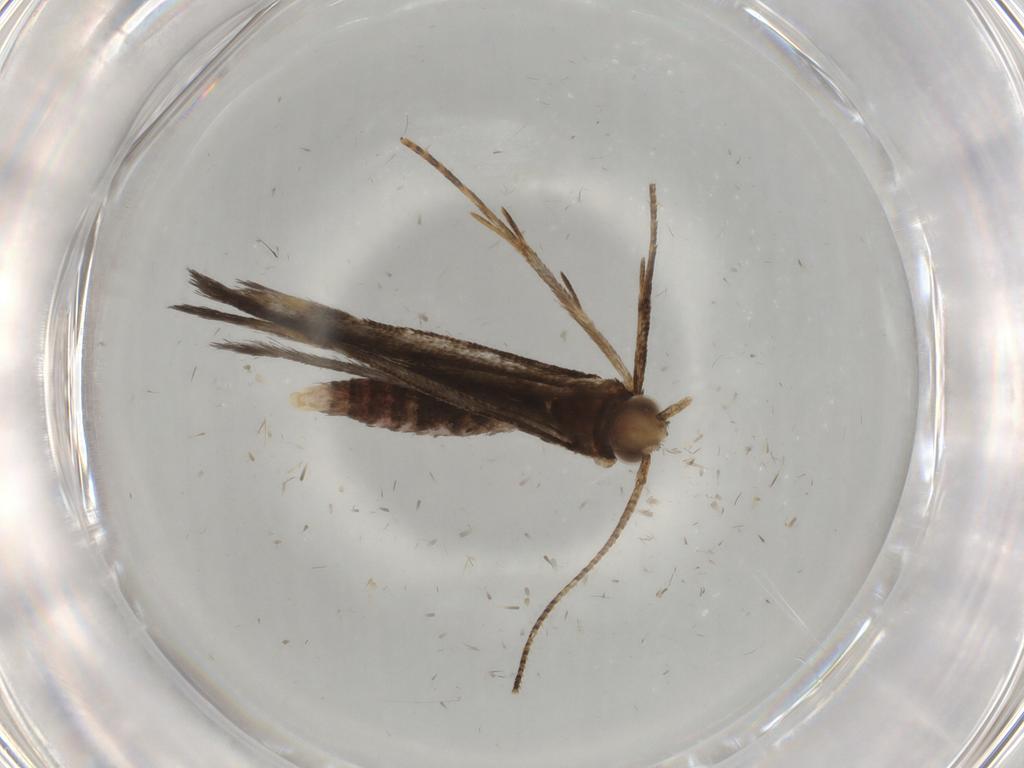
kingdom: Animalia
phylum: Arthropoda
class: Insecta
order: Lepidoptera
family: Gelechiidae
